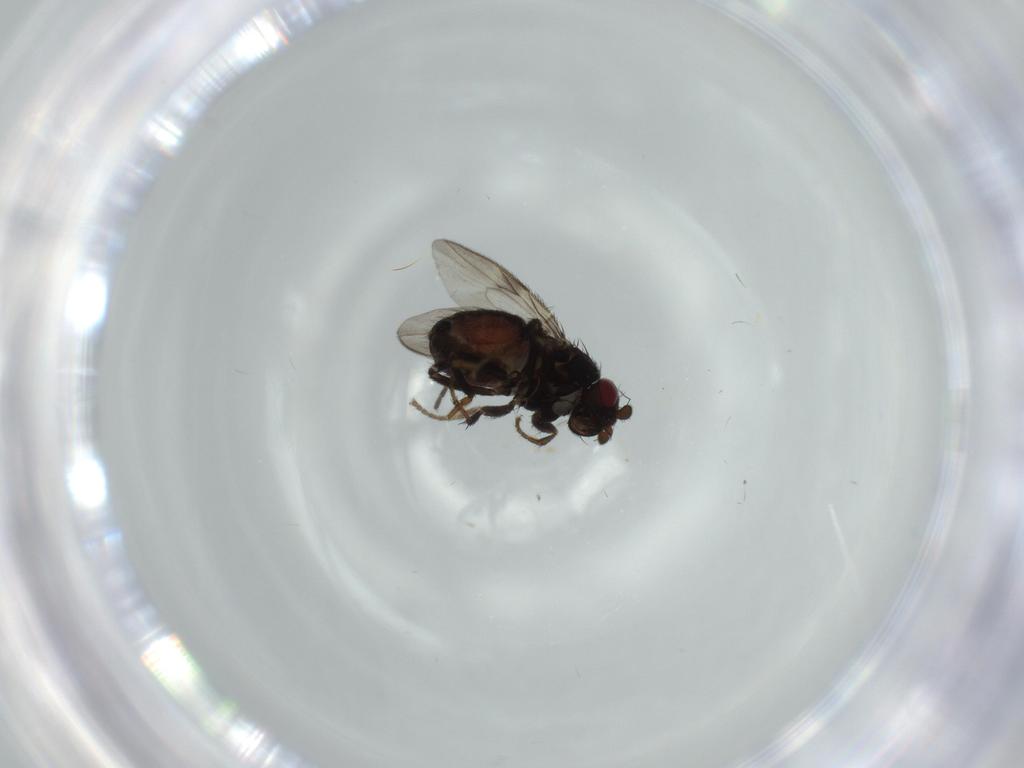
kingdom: Animalia
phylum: Arthropoda
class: Insecta
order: Diptera
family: Sphaeroceridae
